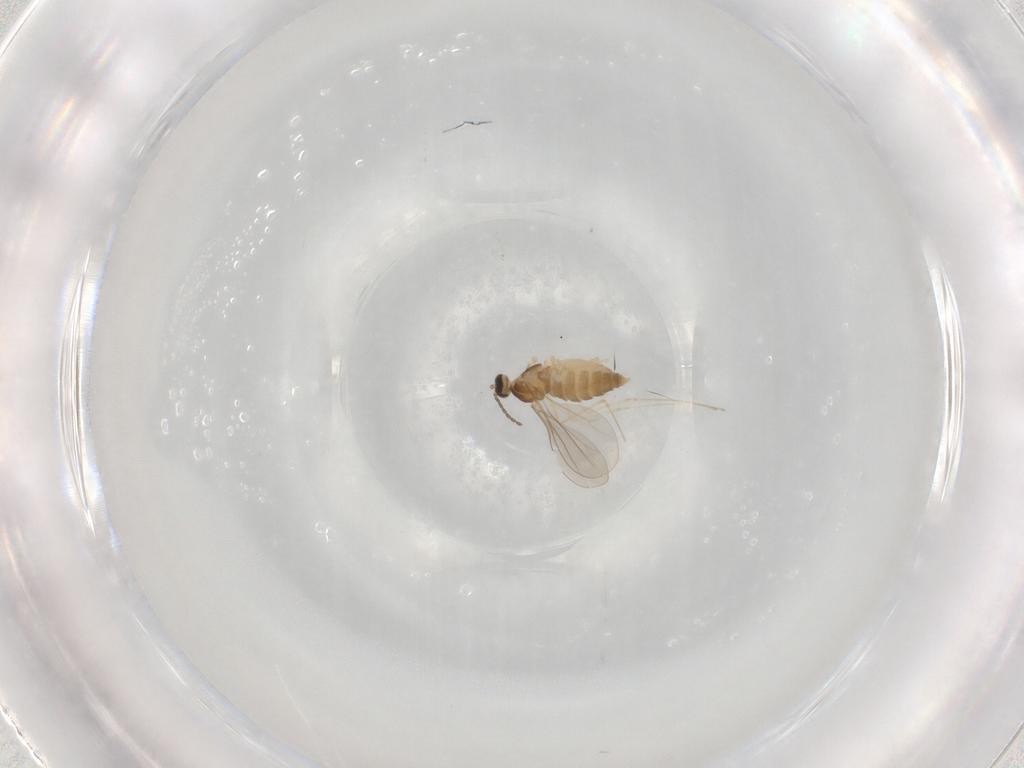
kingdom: Animalia
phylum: Arthropoda
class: Insecta
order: Diptera
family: Cecidomyiidae
